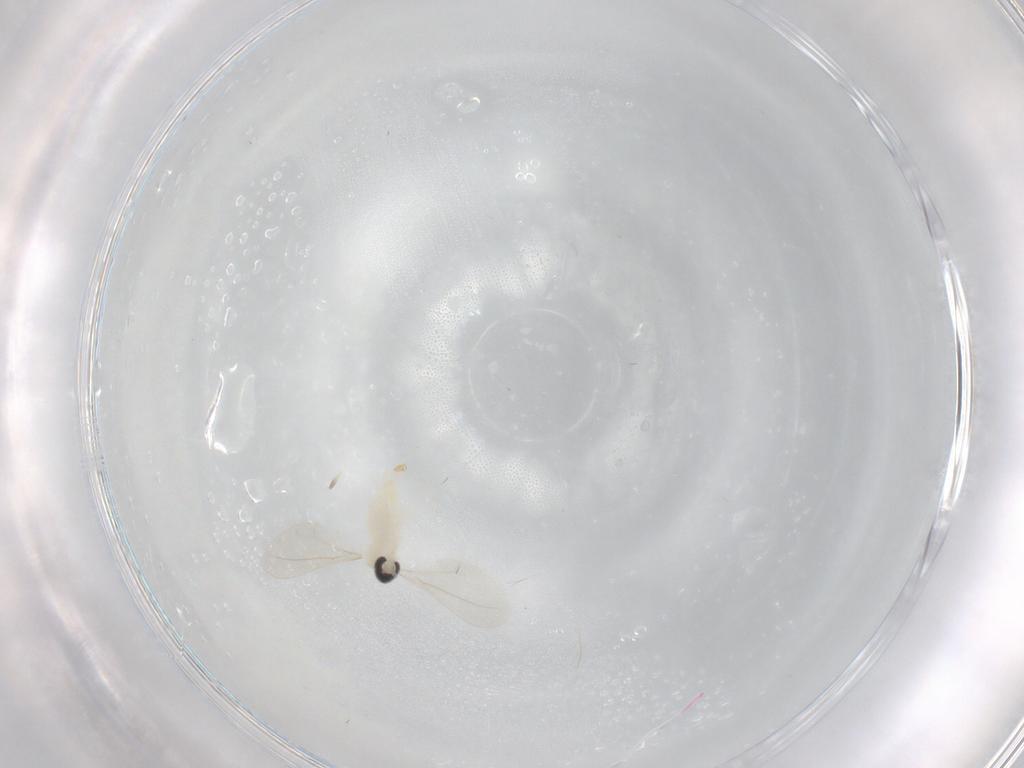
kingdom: Animalia
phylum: Arthropoda
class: Insecta
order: Diptera
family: Cecidomyiidae
